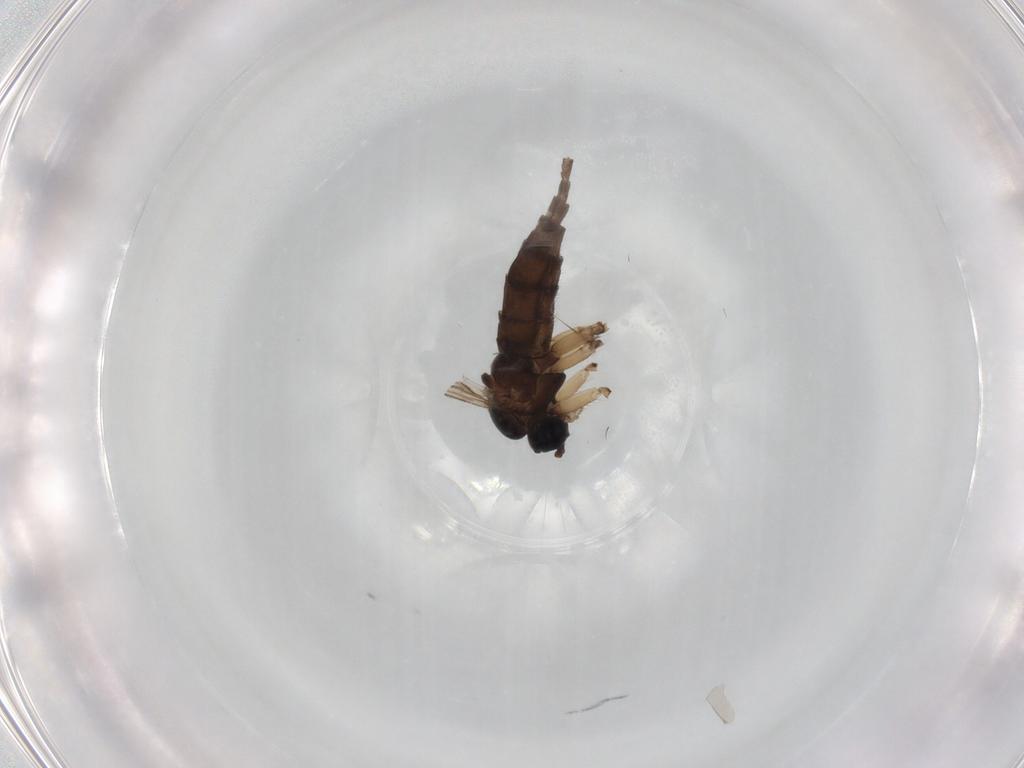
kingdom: Animalia
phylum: Arthropoda
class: Insecta
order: Diptera
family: Sciaridae
